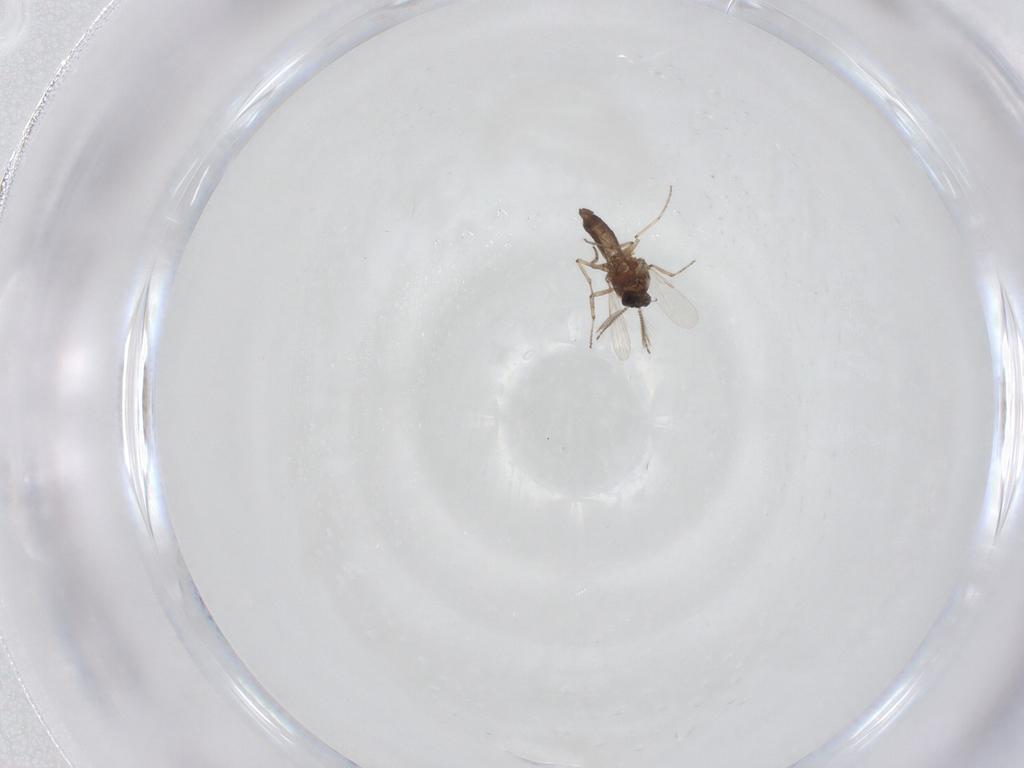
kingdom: Animalia
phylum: Arthropoda
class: Insecta
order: Diptera
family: Ceratopogonidae
